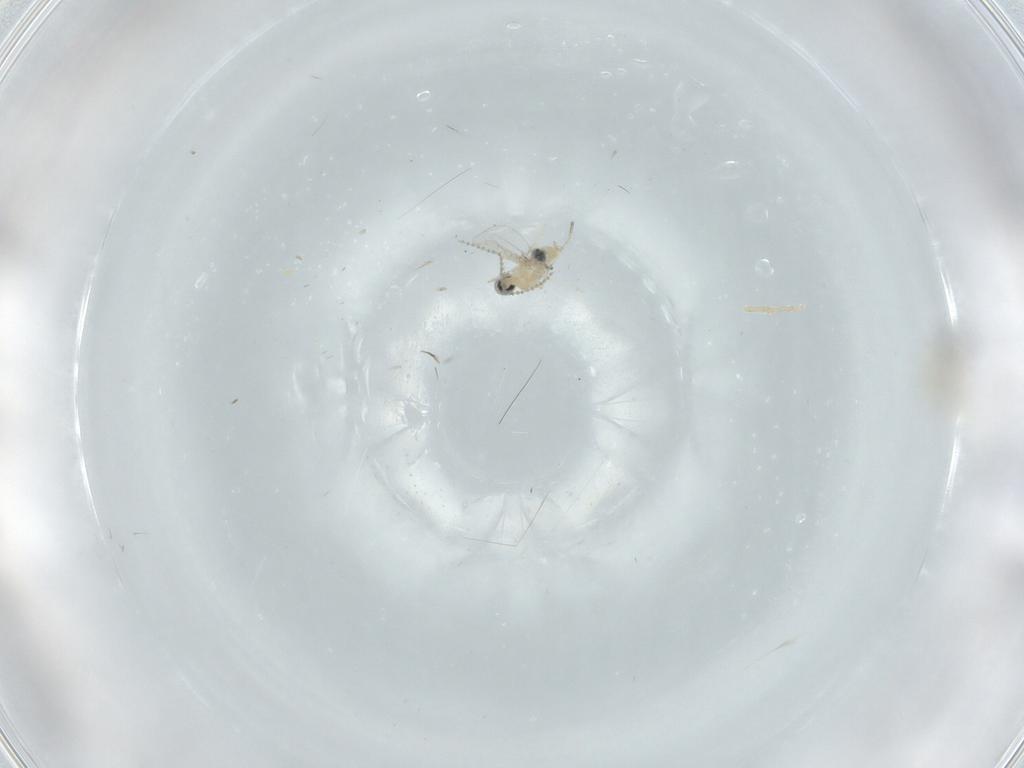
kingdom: Animalia
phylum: Arthropoda
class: Insecta
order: Diptera
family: Cecidomyiidae
